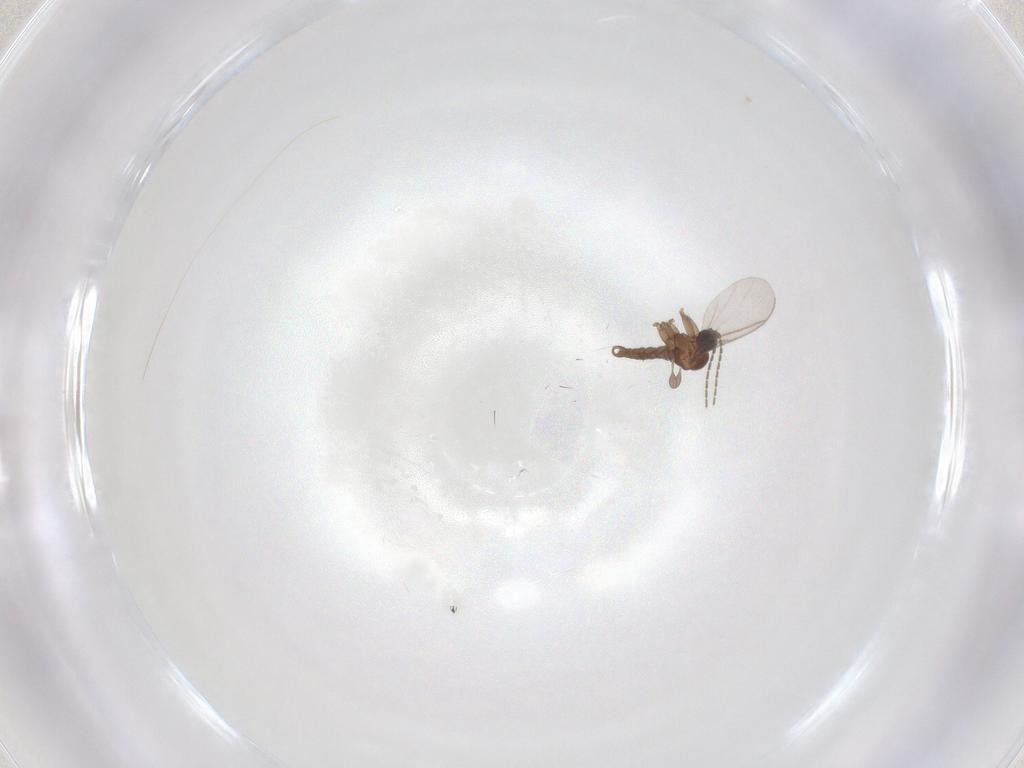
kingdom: Animalia
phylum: Arthropoda
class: Insecta
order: Diptera
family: Sciaridae
